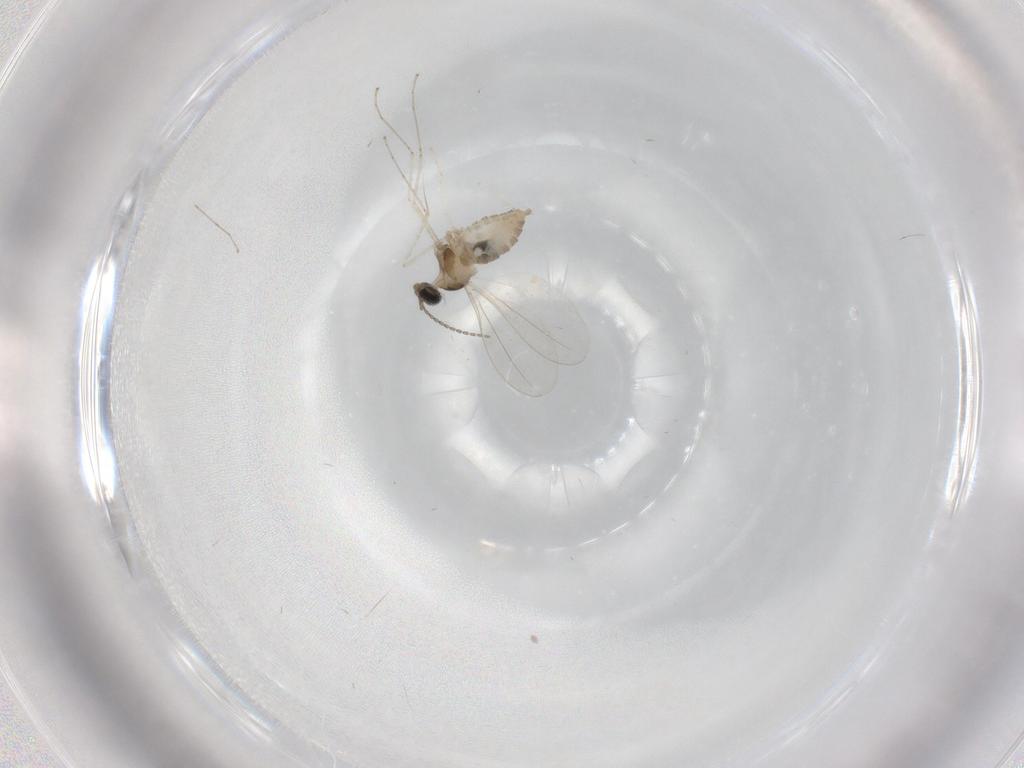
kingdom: Animalia
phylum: Arthropoda
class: Insecta
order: Diptera
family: Cecidomyiidae
